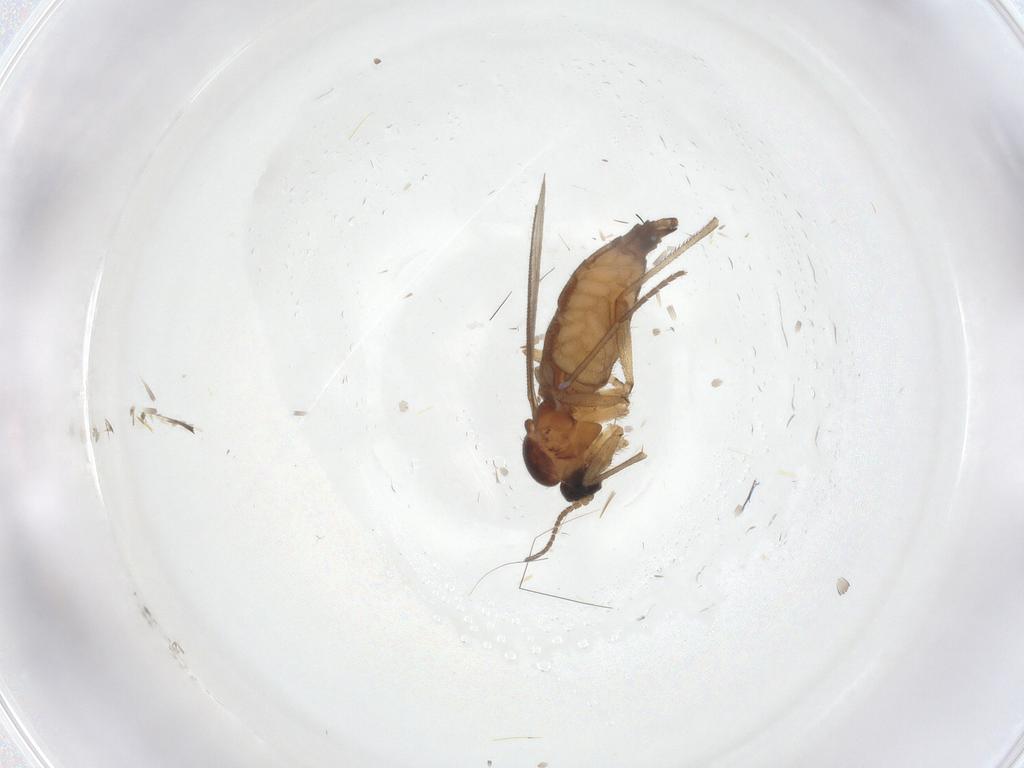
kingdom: Animalia
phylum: Arthropoda
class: Insecta
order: Diptera
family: Sciaridae
